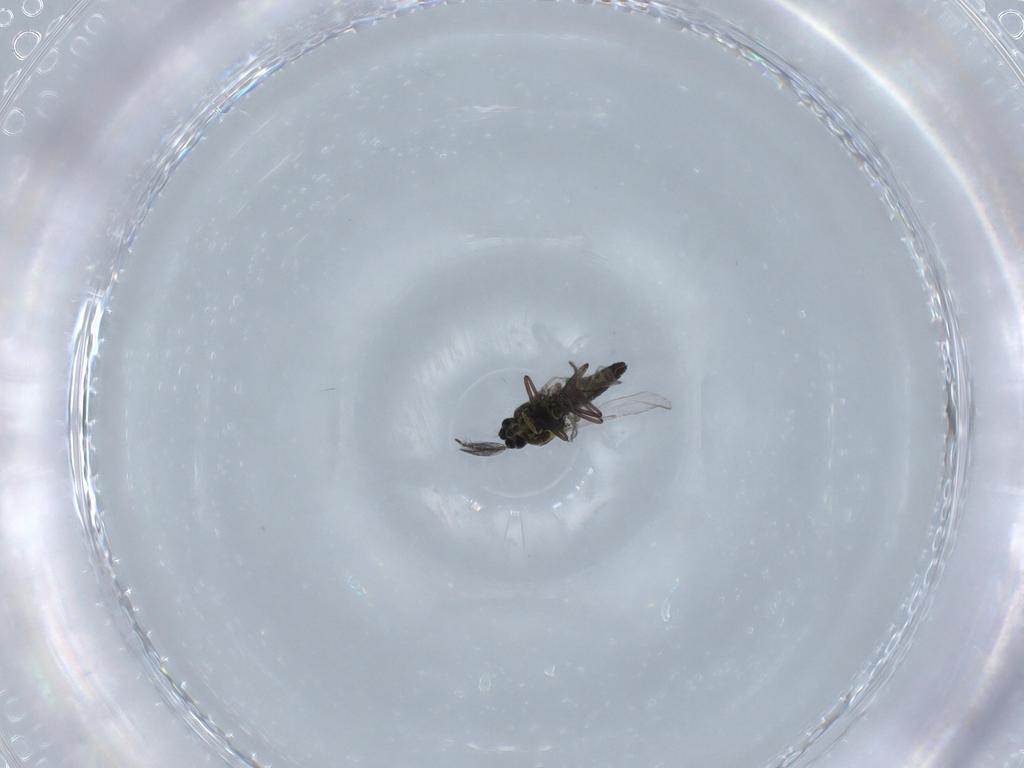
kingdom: Animalia
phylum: Arthropoda
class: Insecta
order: Diptera
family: Ceratopogonidae
